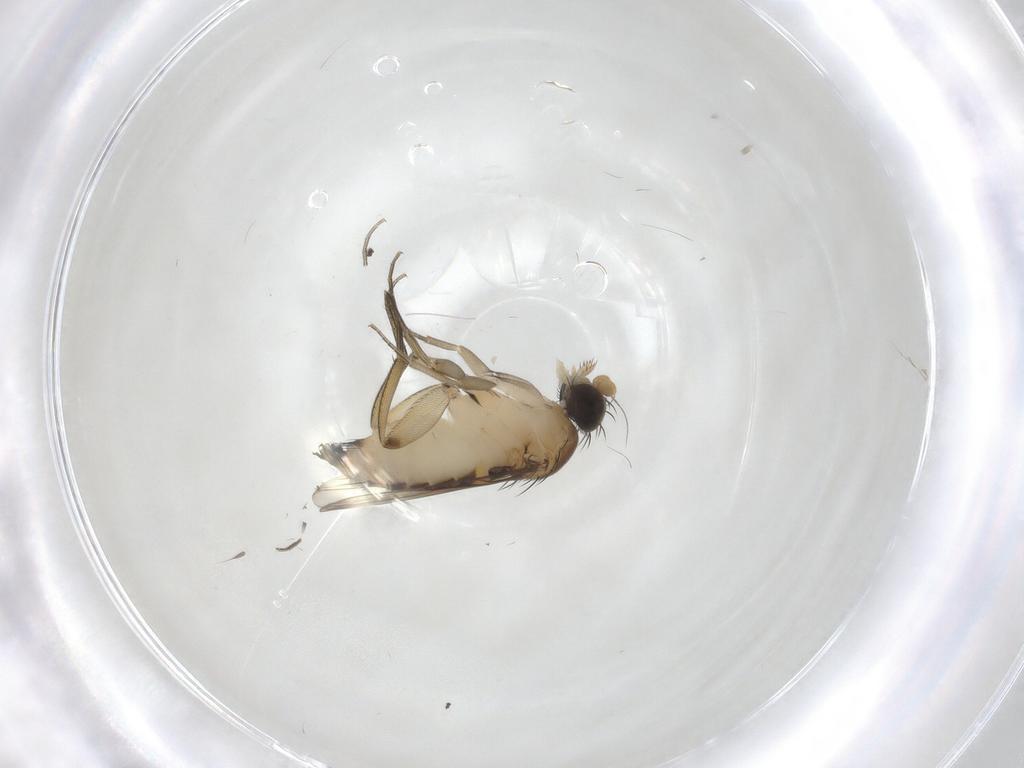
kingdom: Animalia
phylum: Arthropoda
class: Insecta
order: Diptera
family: Phoridae
